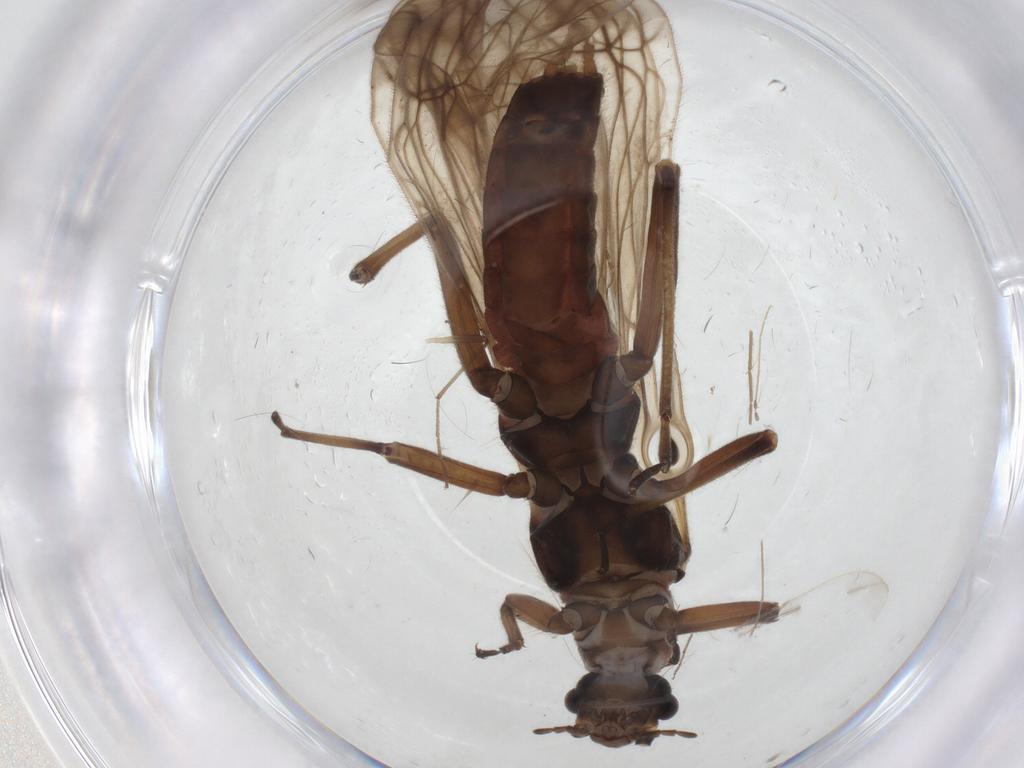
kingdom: Animalia
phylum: Arthropoda
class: Insecta
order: Plecoptera
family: Capniidae
